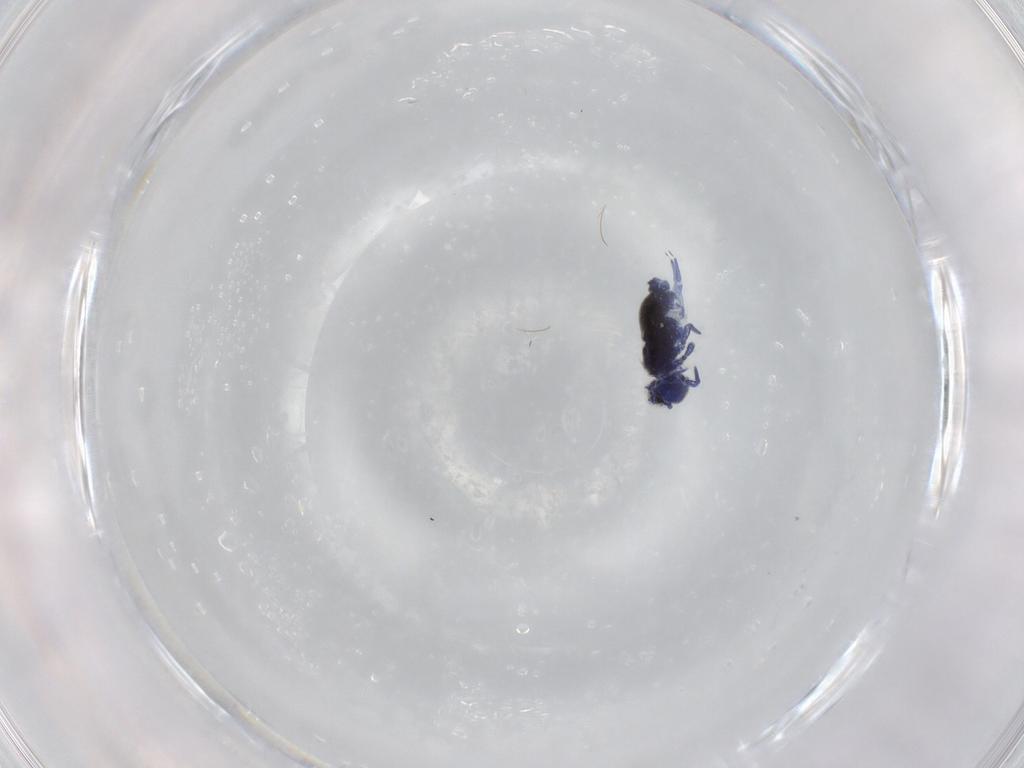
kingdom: Animalia
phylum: Arthropoda
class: Collembola
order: Symphypleona
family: Sminthurididae
